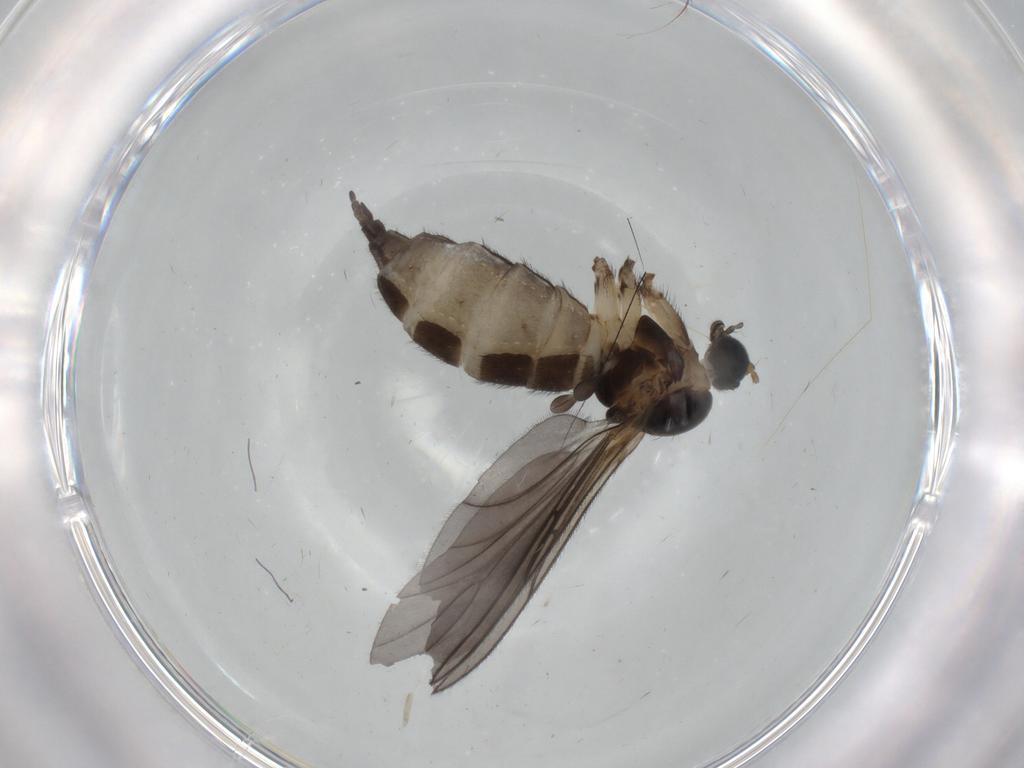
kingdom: Animalia
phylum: Arthropoda
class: Insecta
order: Diptera
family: Sciaridae
